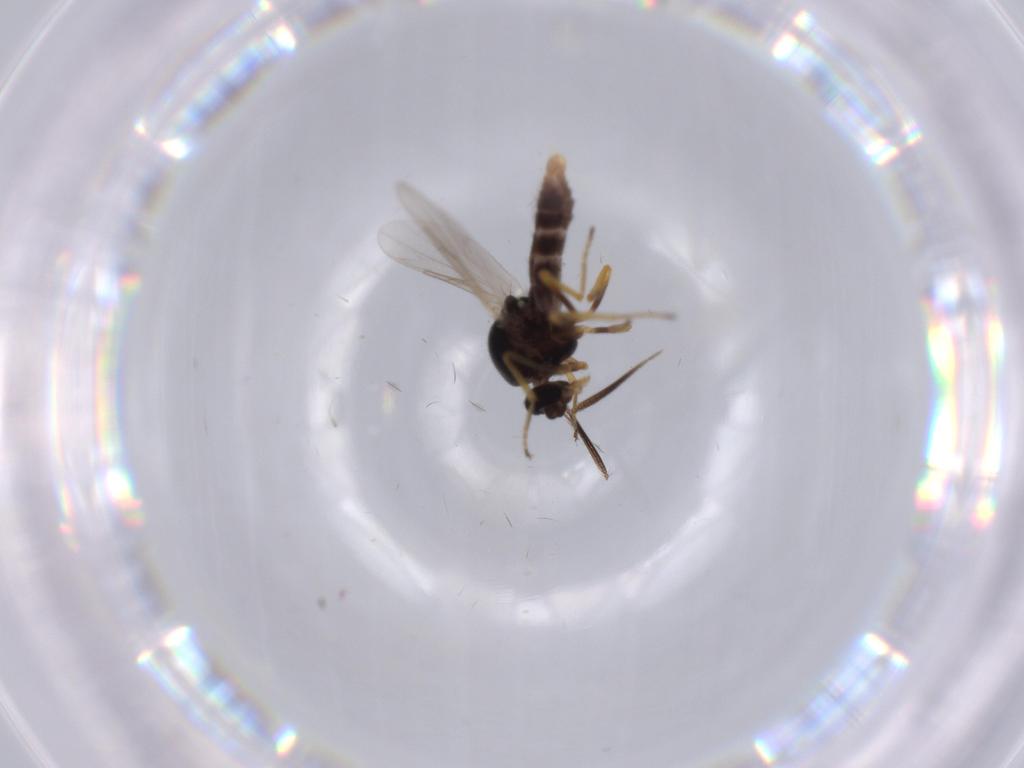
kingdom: Animalia
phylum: Arthropoda
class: Insecta
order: Diptera
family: Ceratopogonidae
